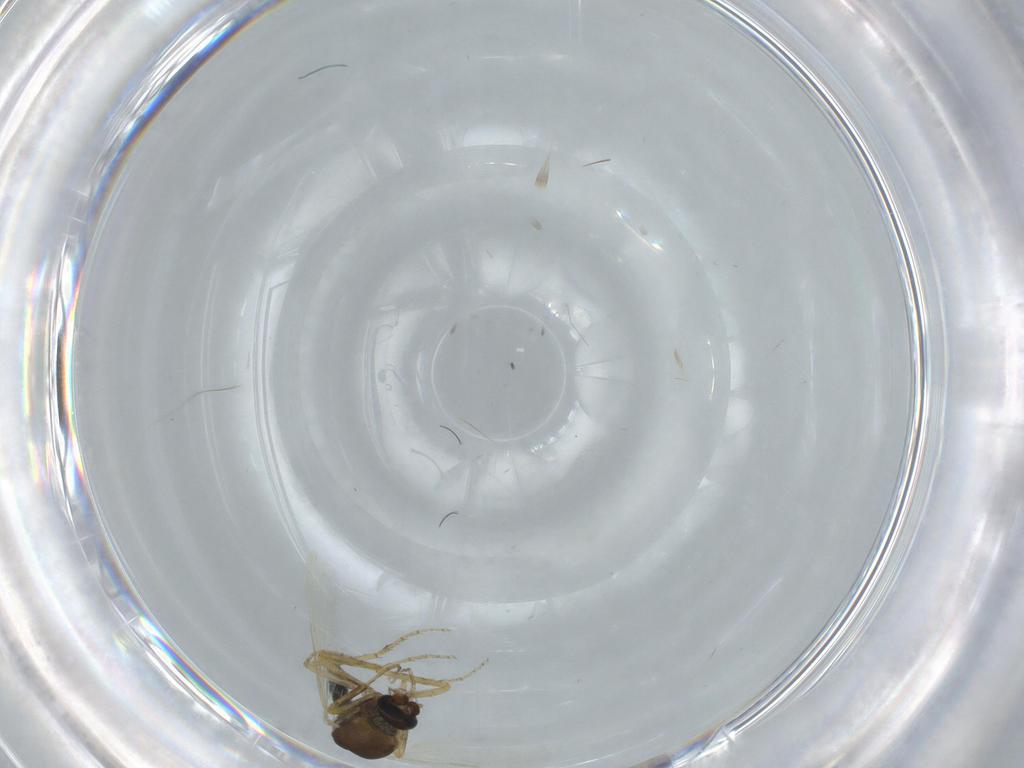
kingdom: Animalia
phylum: Arthropoda
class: Insecta
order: Diptera
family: Ceratopogonidae
